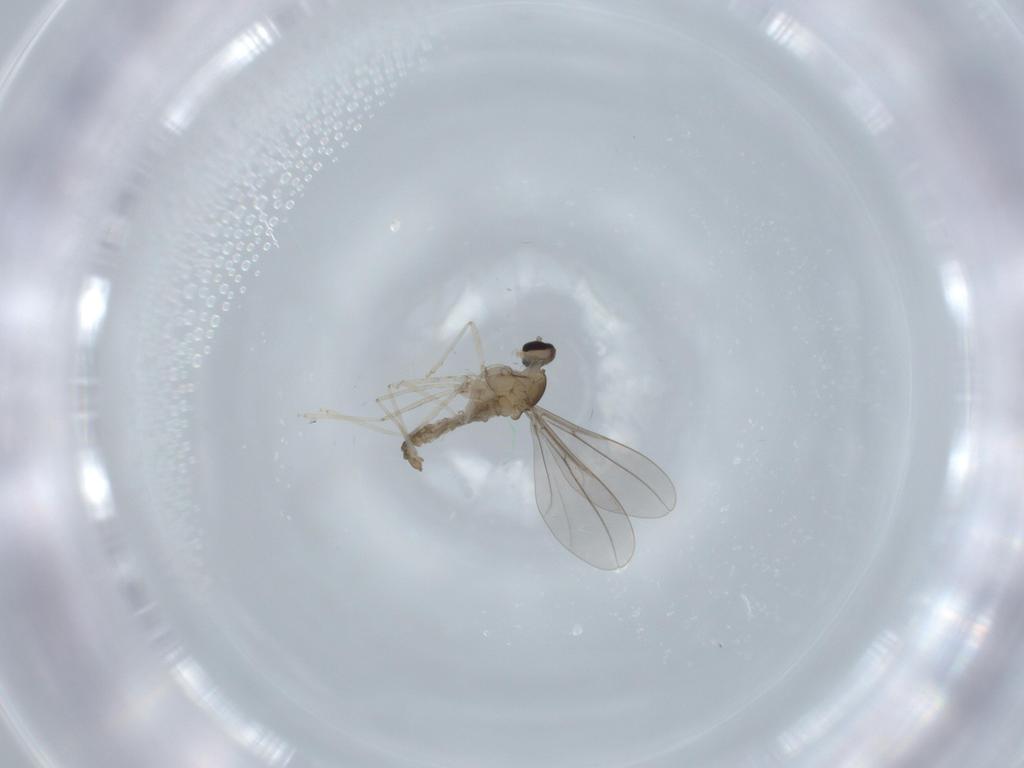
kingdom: Animalia
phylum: Arthropoda
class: Insecta
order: Diptera
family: Cecidomyiidae
